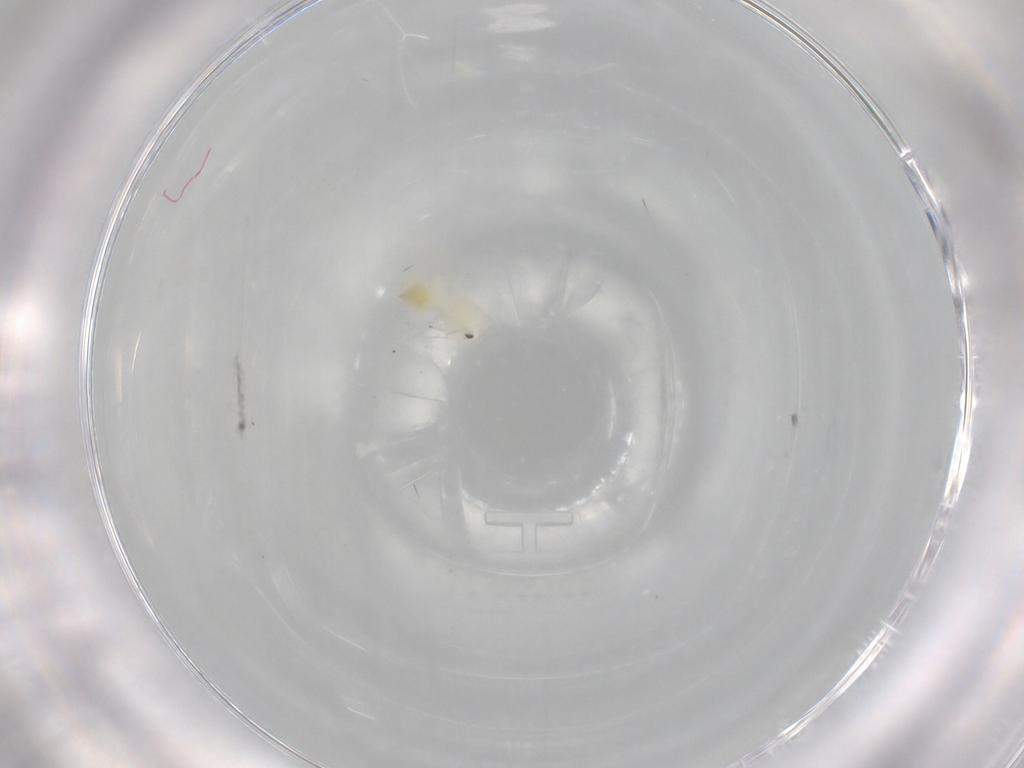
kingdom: Animalia
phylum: Arthropoda
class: Insecta
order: Hemiptera
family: Aleyrodidae
